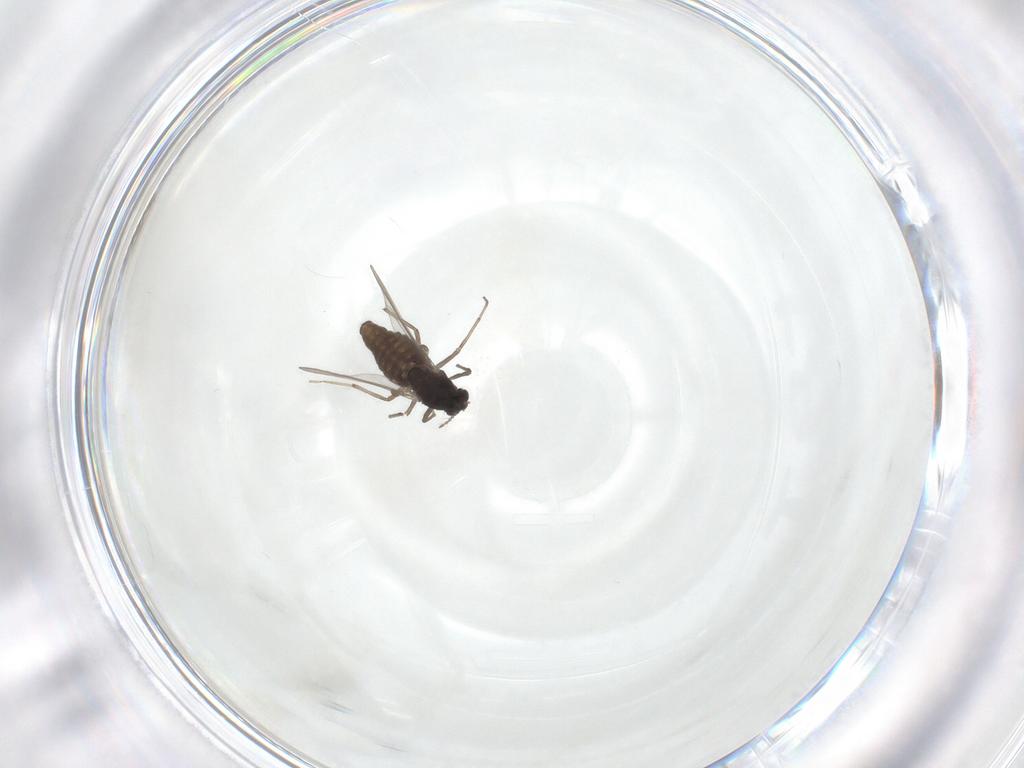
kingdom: Animalia
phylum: Arthropoda
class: Insecta
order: Diptera
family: Chironomidae
